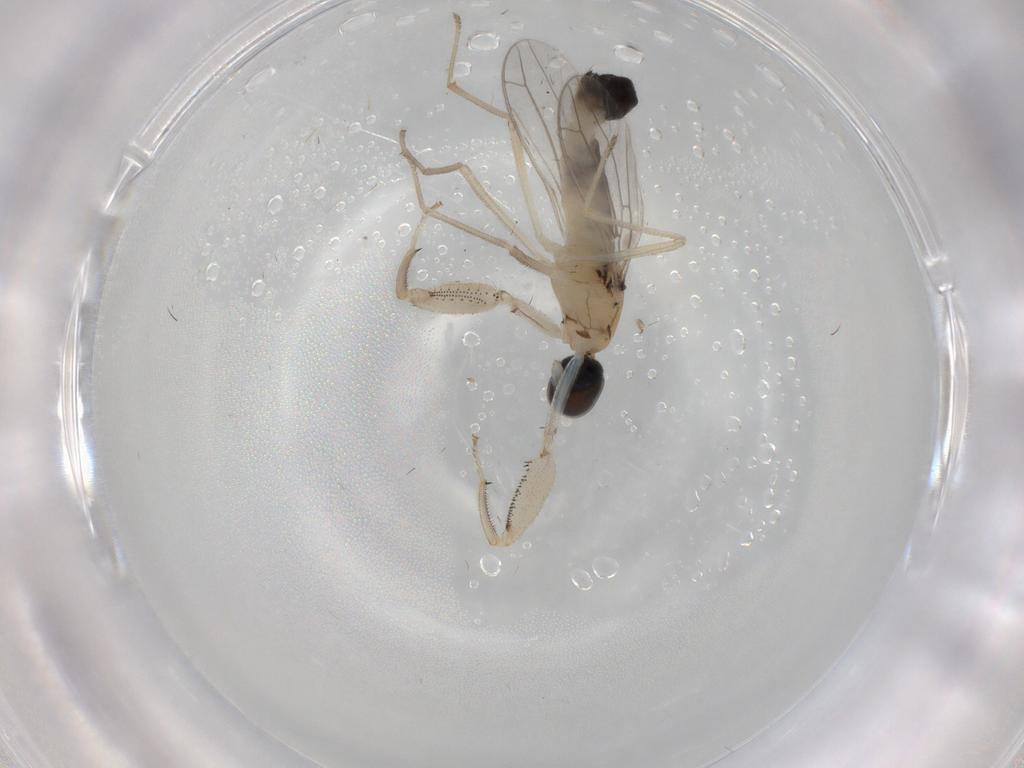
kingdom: Animalia
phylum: Arthropoda
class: Insecta
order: Diptera
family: Empididae
